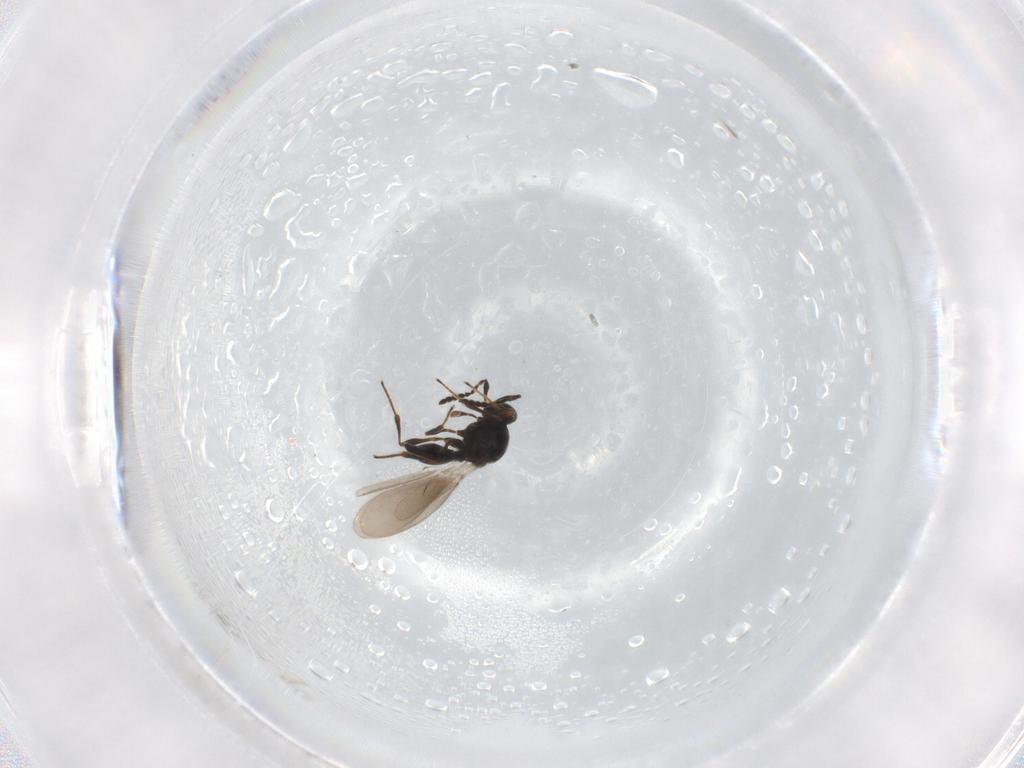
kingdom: Animalia
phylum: Arthropoda
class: Insecta
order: Hymenoptera
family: Platygastridae
